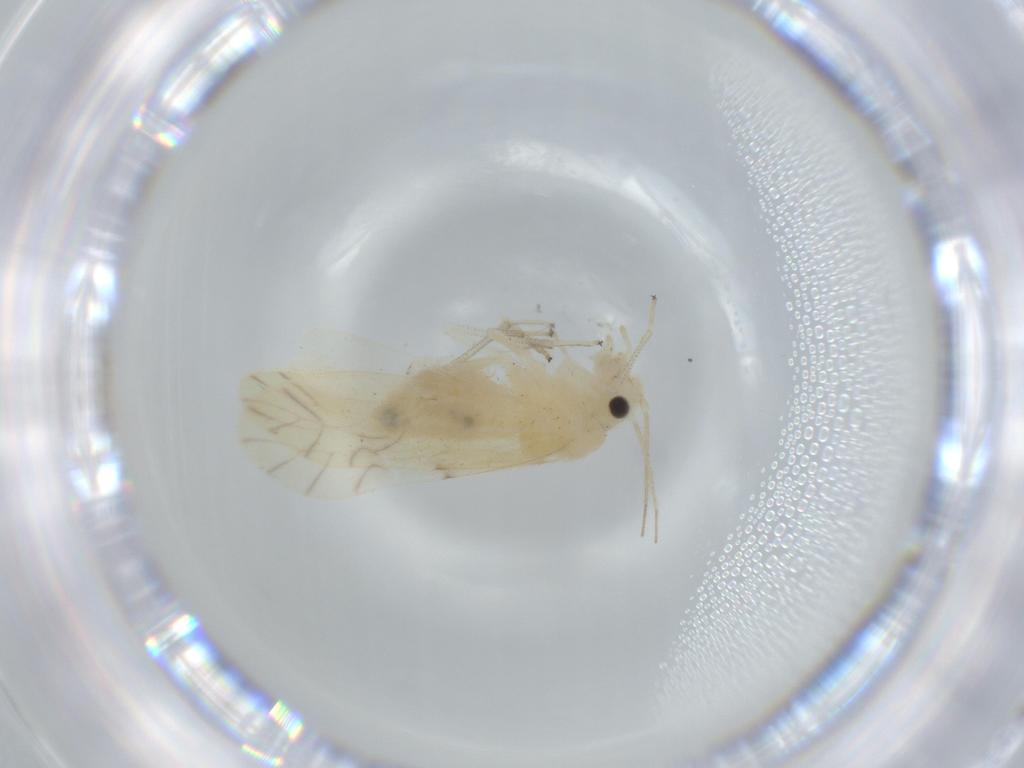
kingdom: Animalia
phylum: Arthropoda
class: Insecta
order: Psocodea
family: Caeciliusidae
